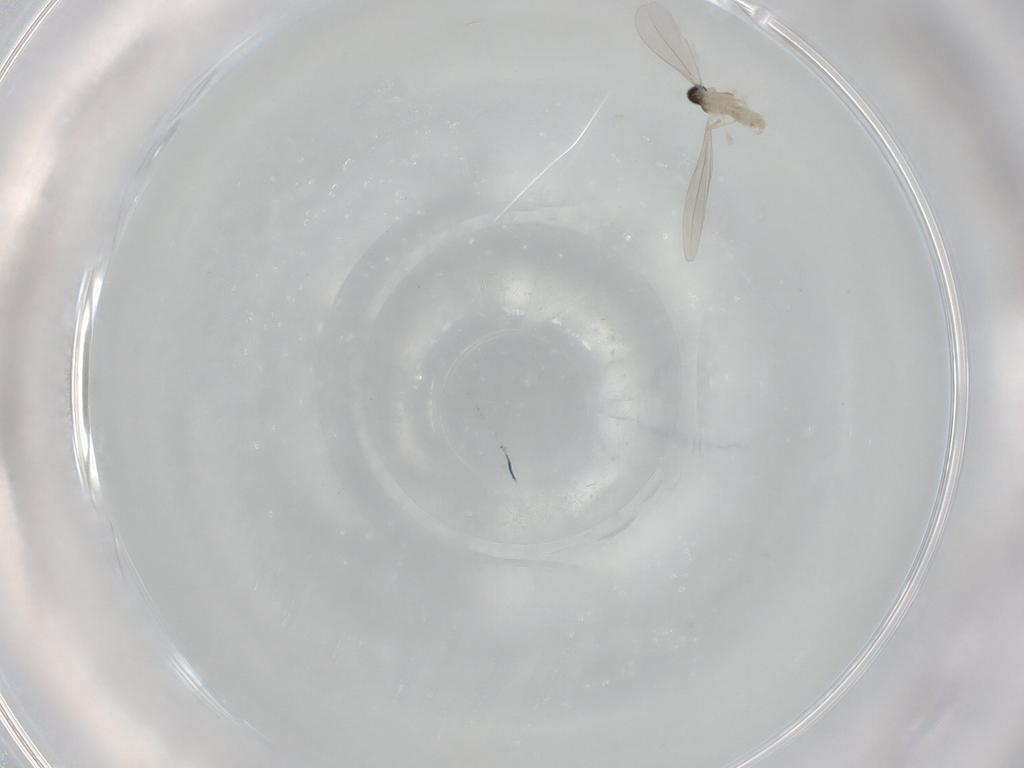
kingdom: Animalia
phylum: Arthropoda
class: Insecta
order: Diptera
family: Cecidomyiidae
